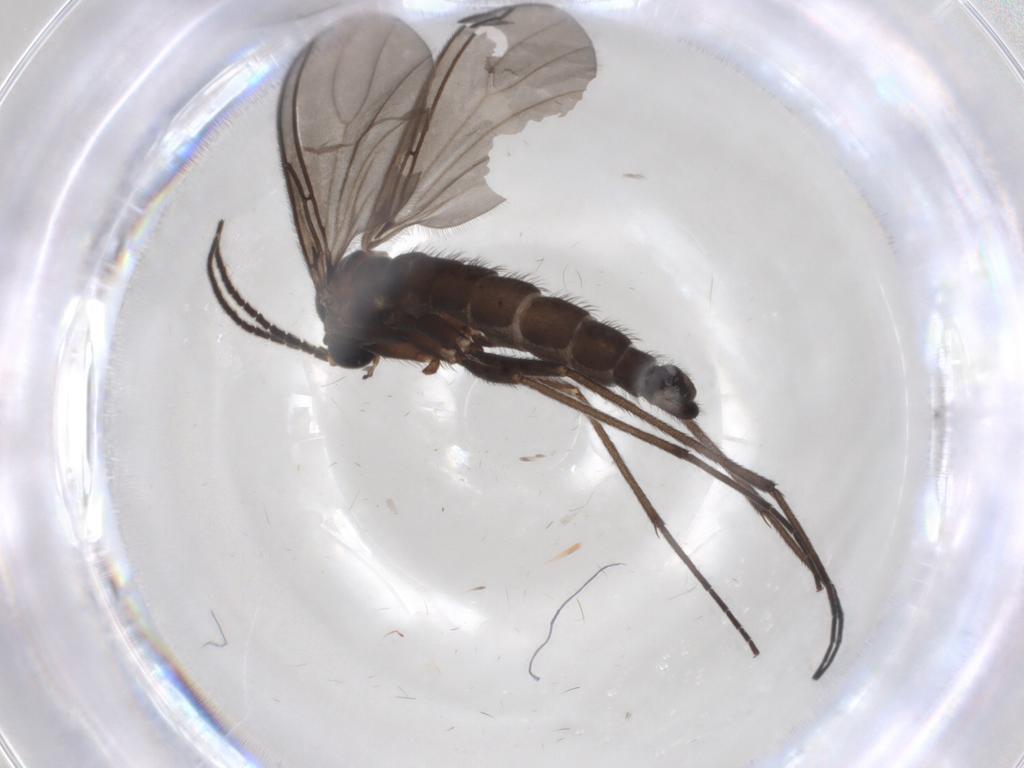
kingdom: Animalia
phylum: Arthropoda
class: Insecta
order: Diptera
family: Sciaridae
